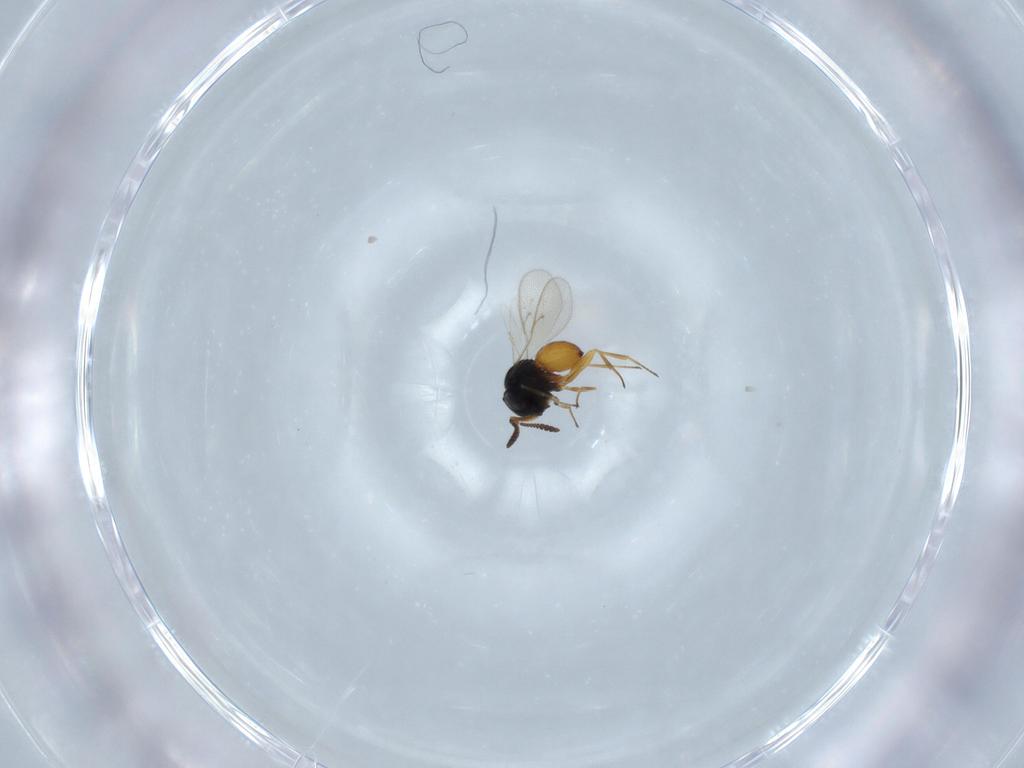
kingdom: Animalia
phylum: Arthropoda
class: Insecta
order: Hymenoptera
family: Scelionidae
